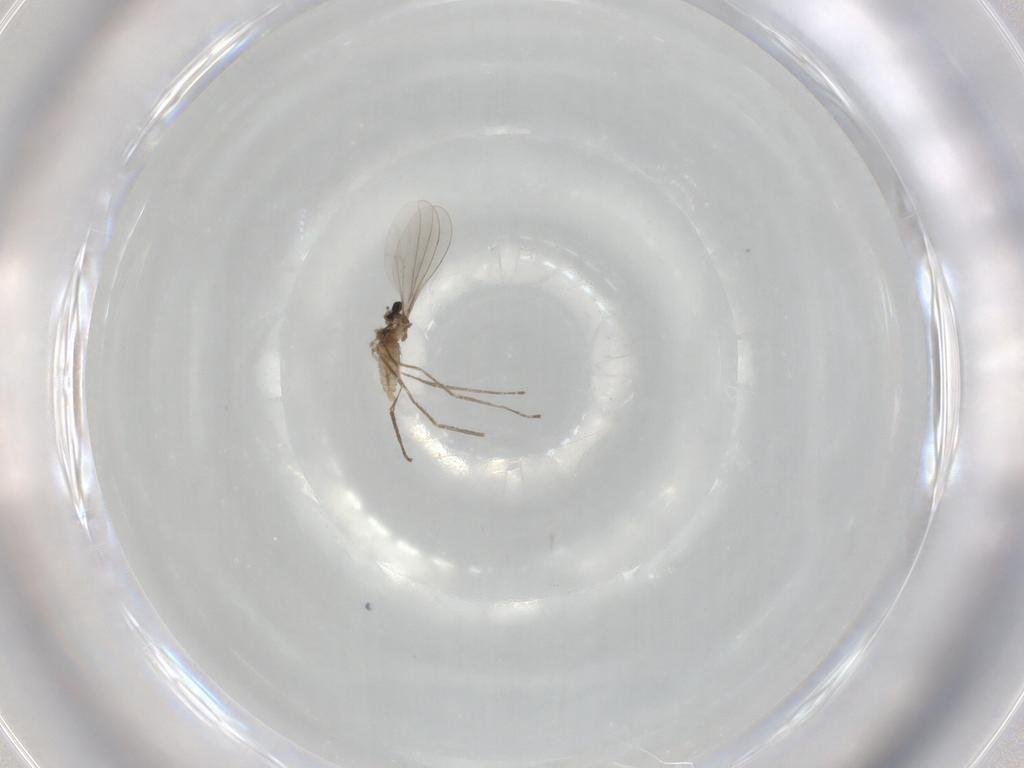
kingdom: Animalia
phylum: Arthropoda
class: Insecta
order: Diptera
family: Cecidomyiidae
